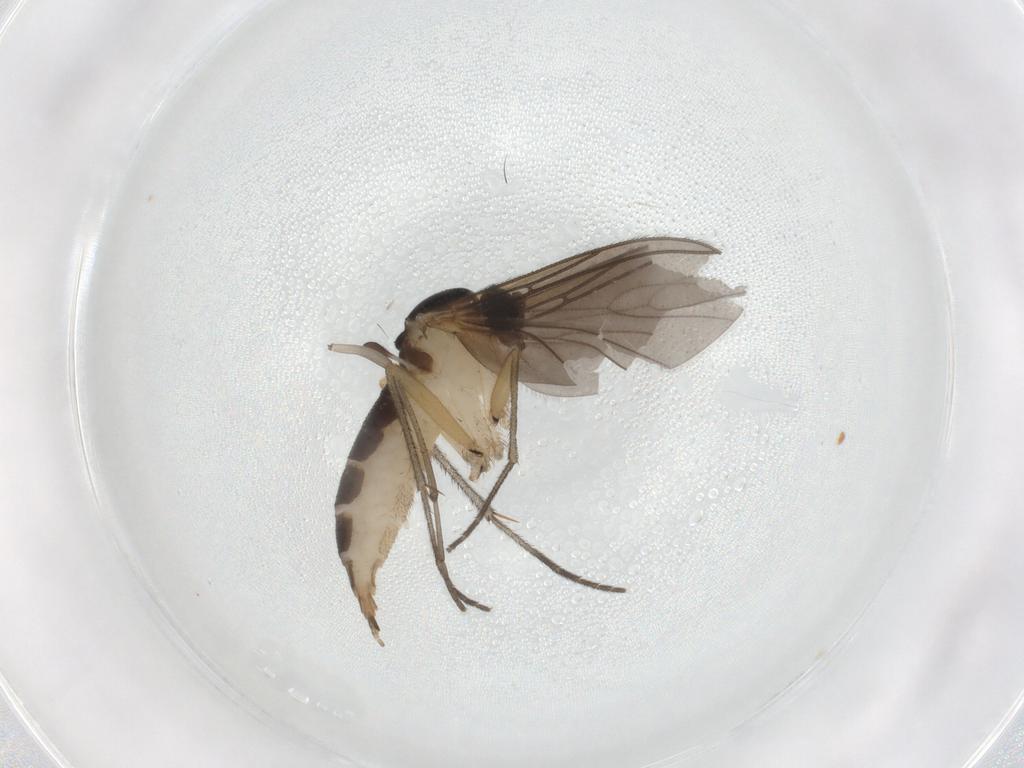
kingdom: Animalia
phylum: Arthropoda
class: Insecta
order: Diptera
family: Sciaridae
